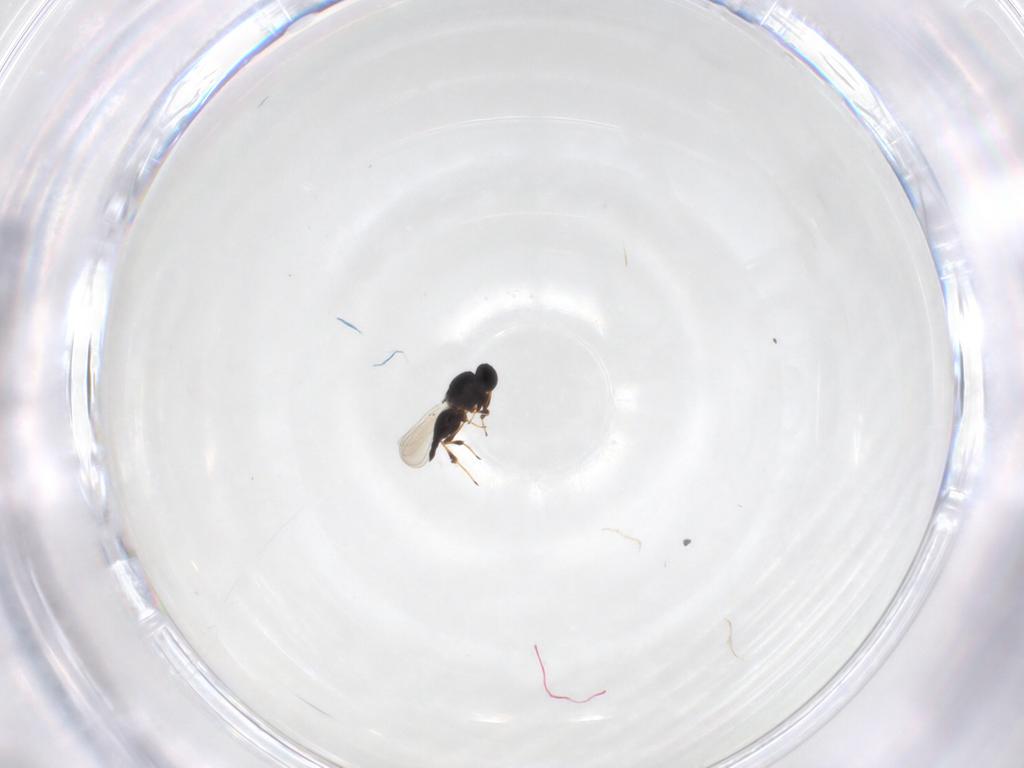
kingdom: Animalia
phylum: Arthropoda
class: Insecta
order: Hymenoptera
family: Platygastridae
